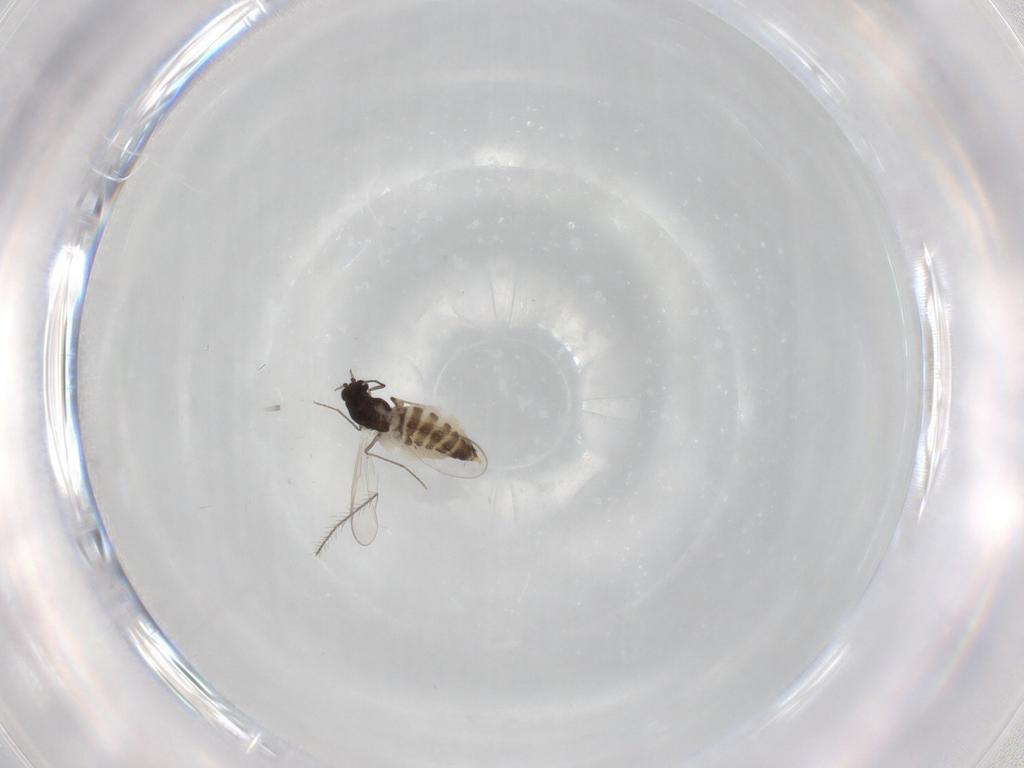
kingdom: Animalia
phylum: Arthropoda
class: Insecta
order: Diptera
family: Chironomidae
